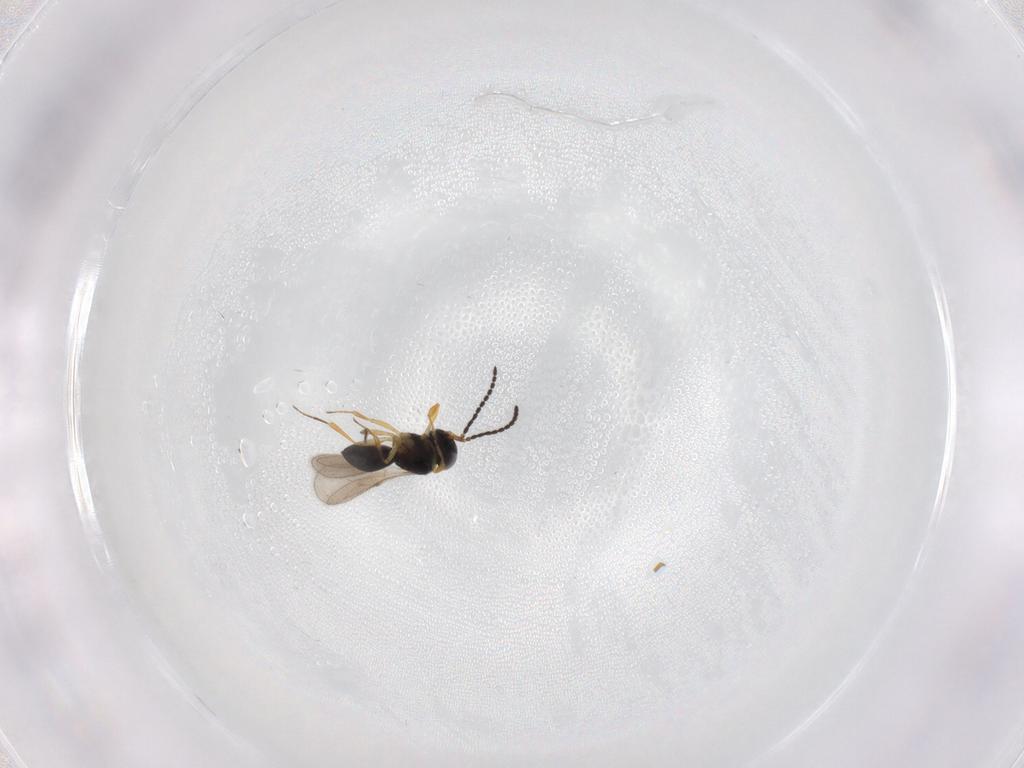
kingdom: Animalia
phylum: Arthropoda
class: Insecta
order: Hymenoptera
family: Scelionidae
